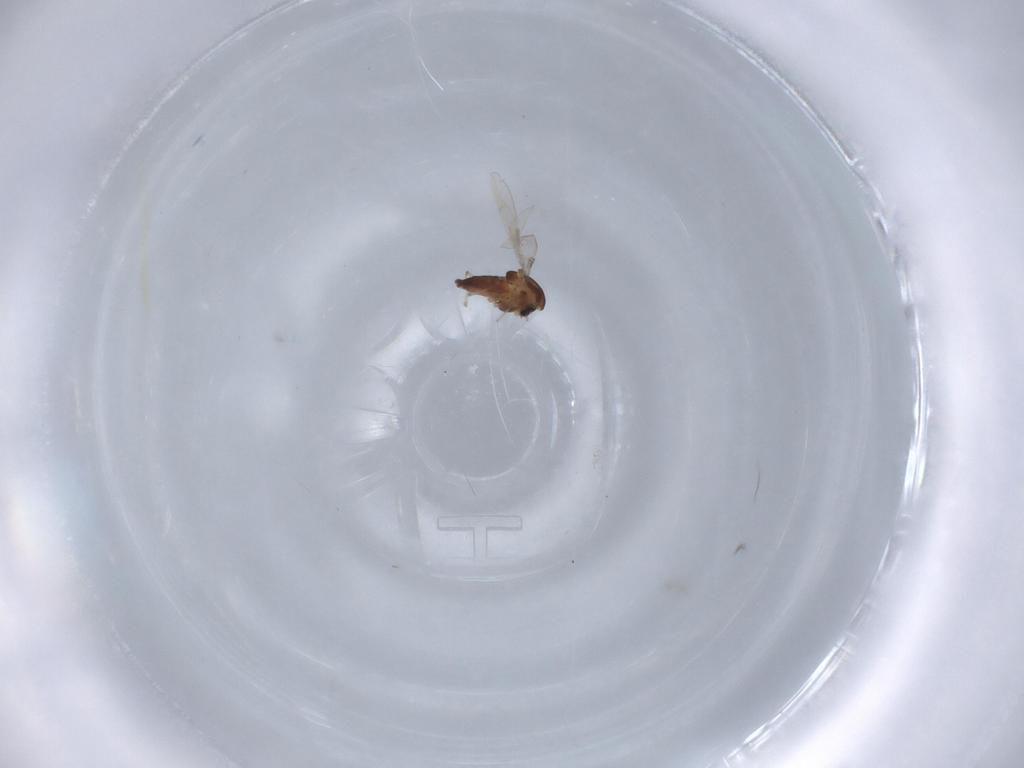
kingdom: Animalia
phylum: Arthropoda
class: Insecta
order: Diptera
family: Chironomidae
